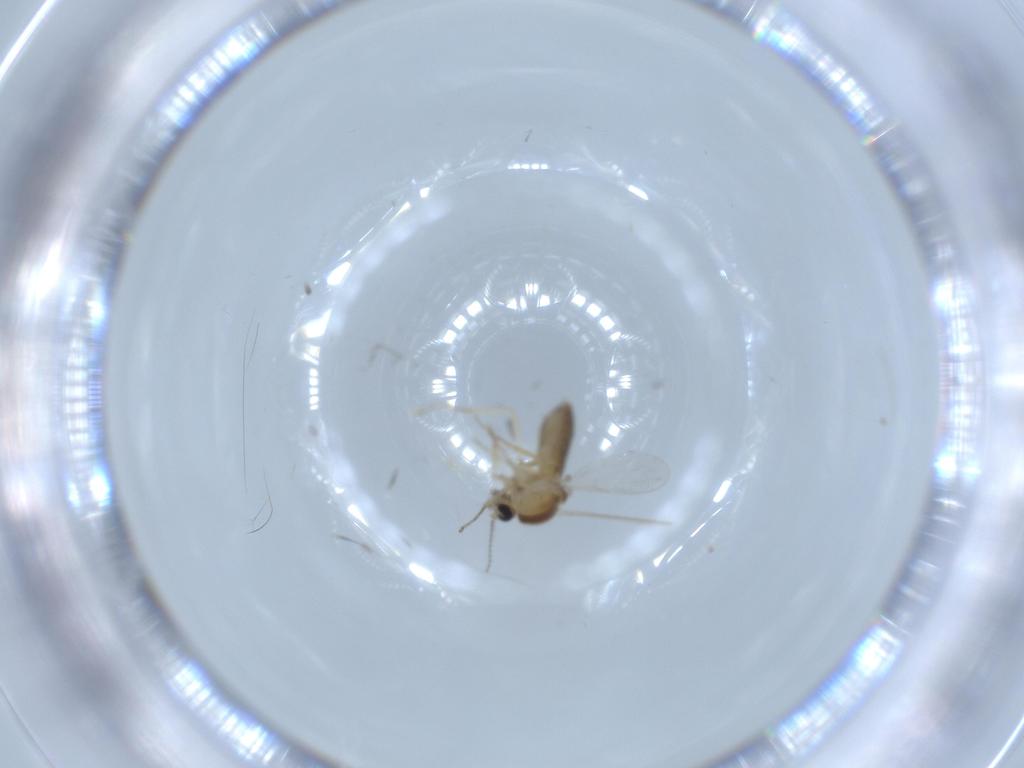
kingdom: Animalia
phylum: Arthropoda
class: Insecta
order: Diptera
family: Ceratopogonidae
